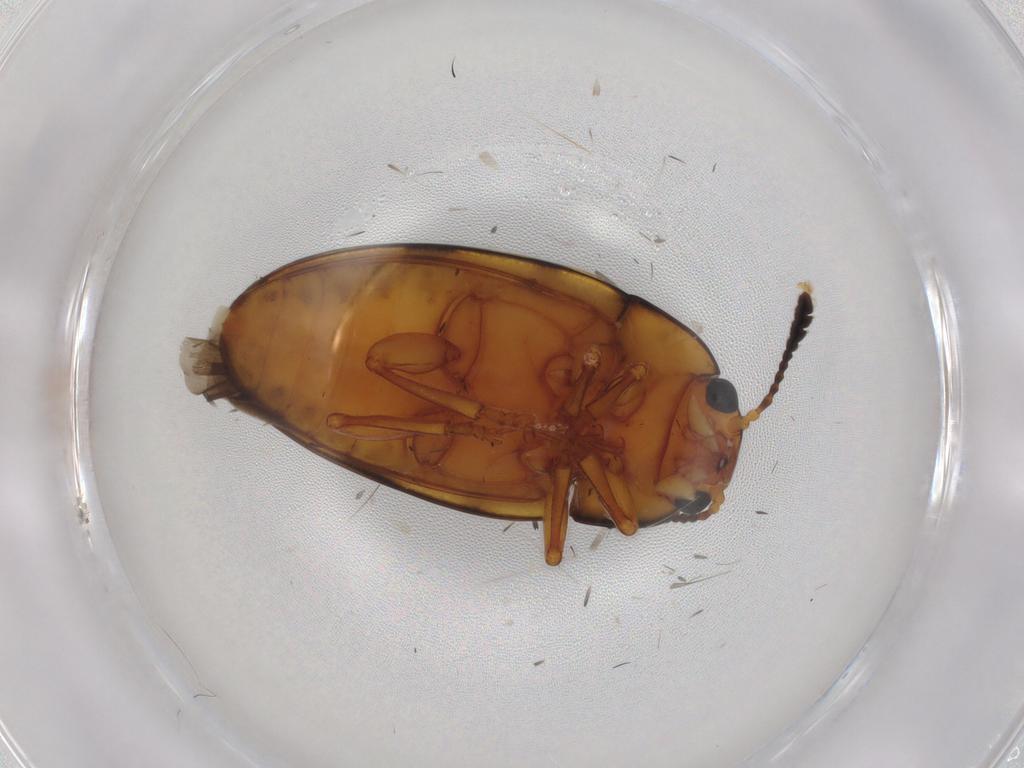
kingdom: Animalia
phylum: Arthropoda
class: Insecta
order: Coleoptera
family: Erotylidae
